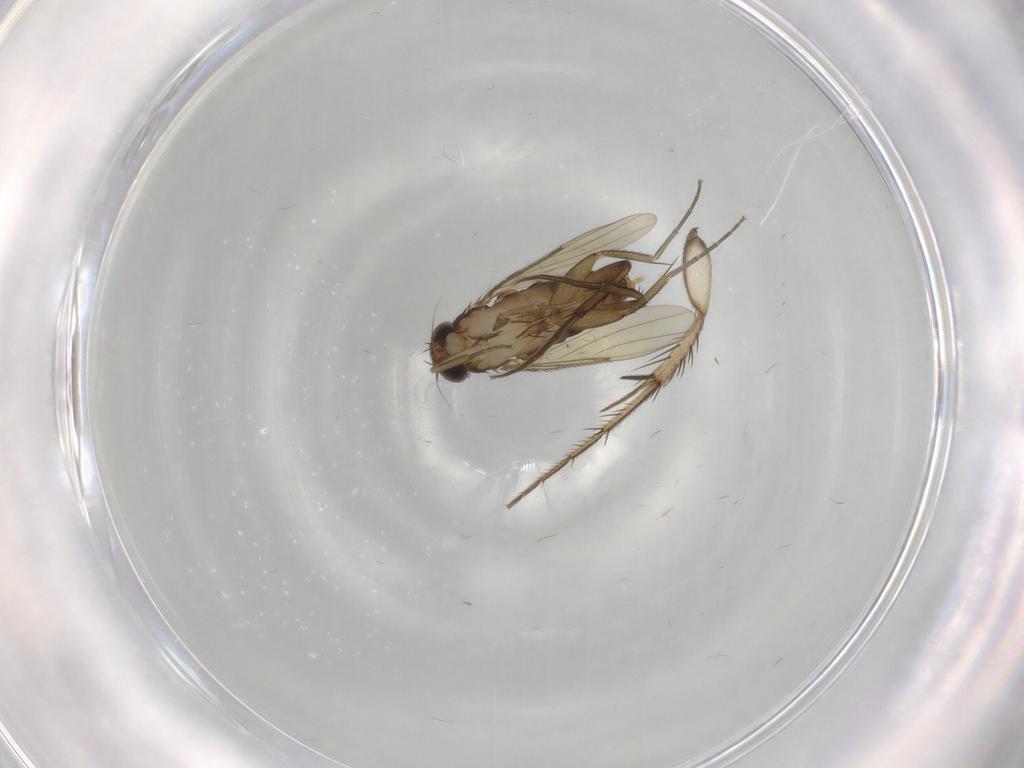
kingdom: Animalia
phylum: Arthropoda
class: Insecta
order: Diptera
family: Phoridae
